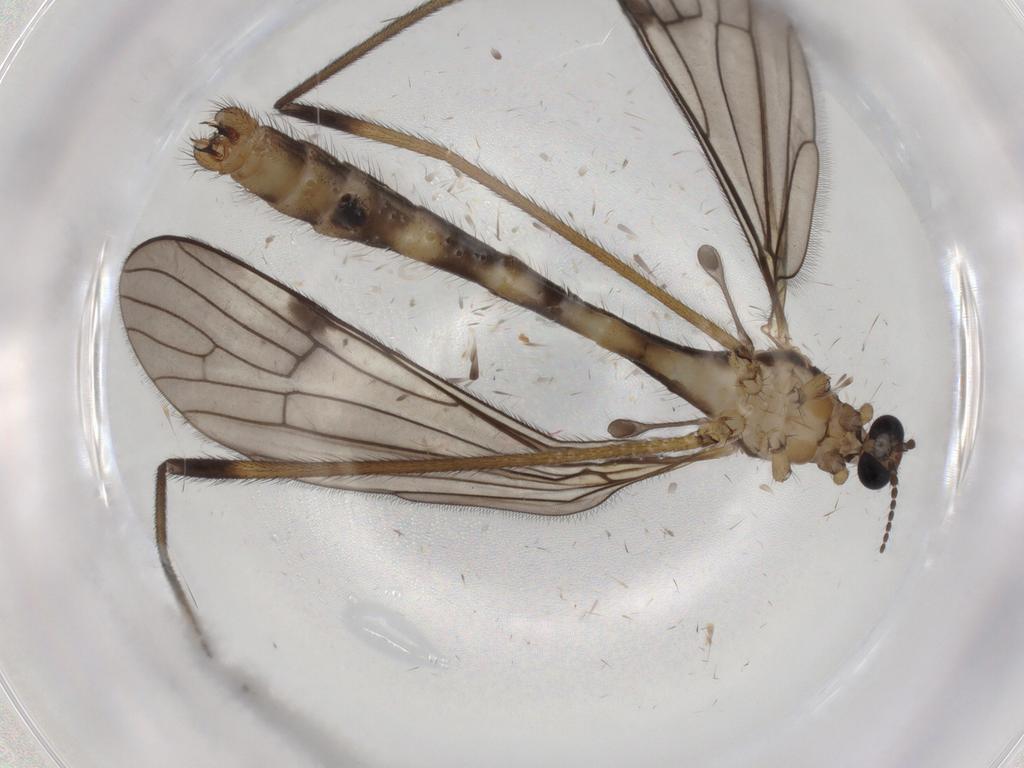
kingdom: Animalia
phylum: Arthropoda
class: Insecta
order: Diptera
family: Limoniidae
